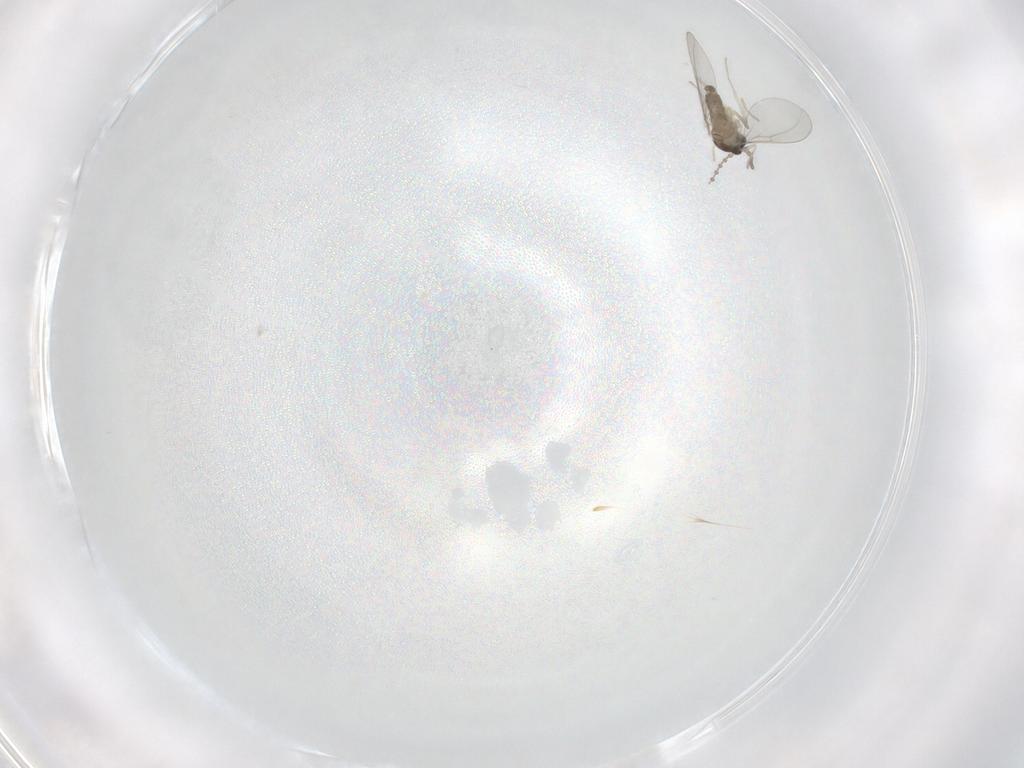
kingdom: Animalia
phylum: Arthropoda
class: Insecta
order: Diptera
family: Cecidomyiidae
